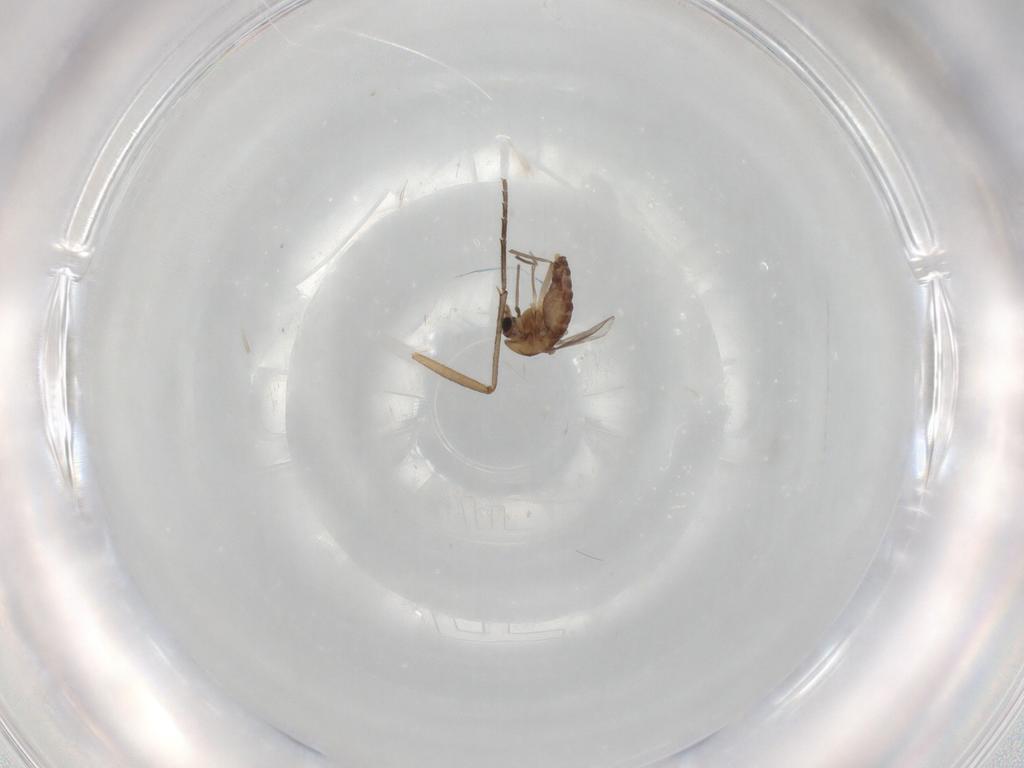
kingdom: Animalia
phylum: Arthropoda
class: Insecta
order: Diptera
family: Chironomidae
